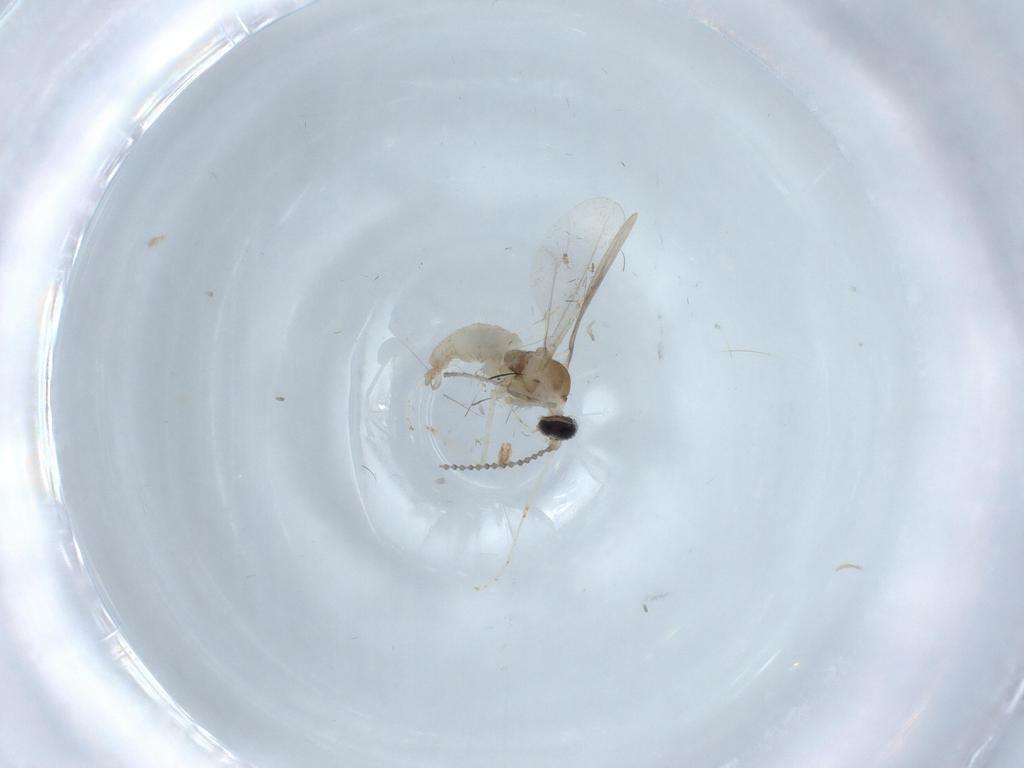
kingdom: Animalia
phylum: Arthropoda
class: Insecta
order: Diptera
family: Cecidomyiidae
